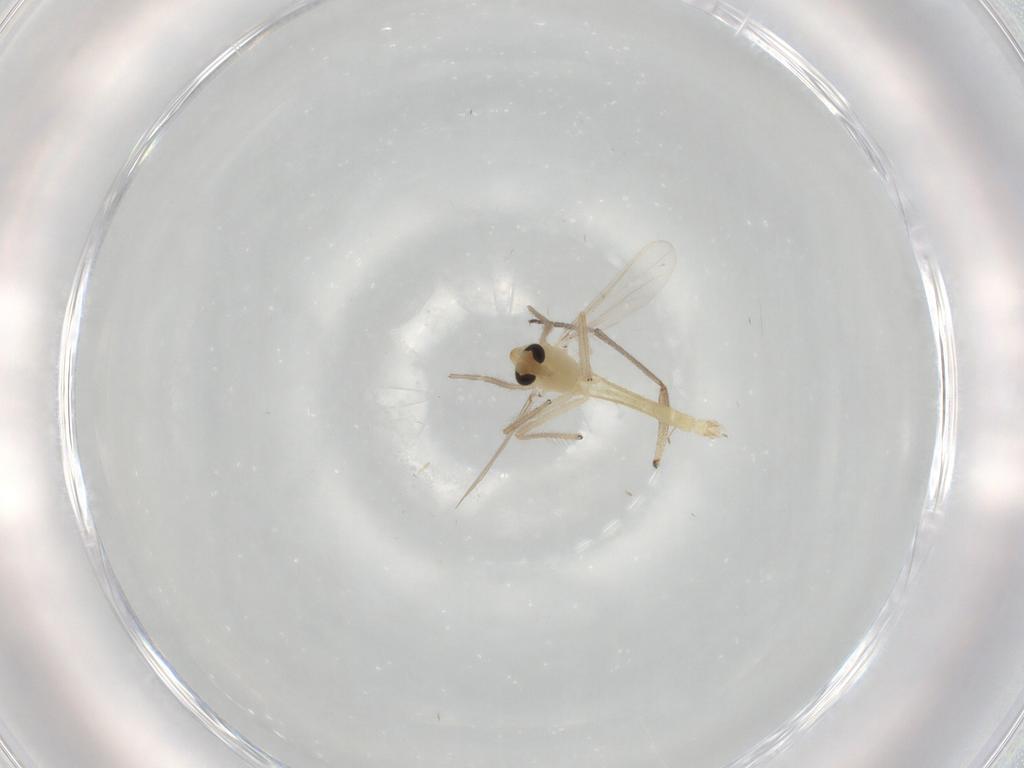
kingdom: Animalia
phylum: Arthropoda
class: Insecta
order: Diptera
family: Chironomidae
